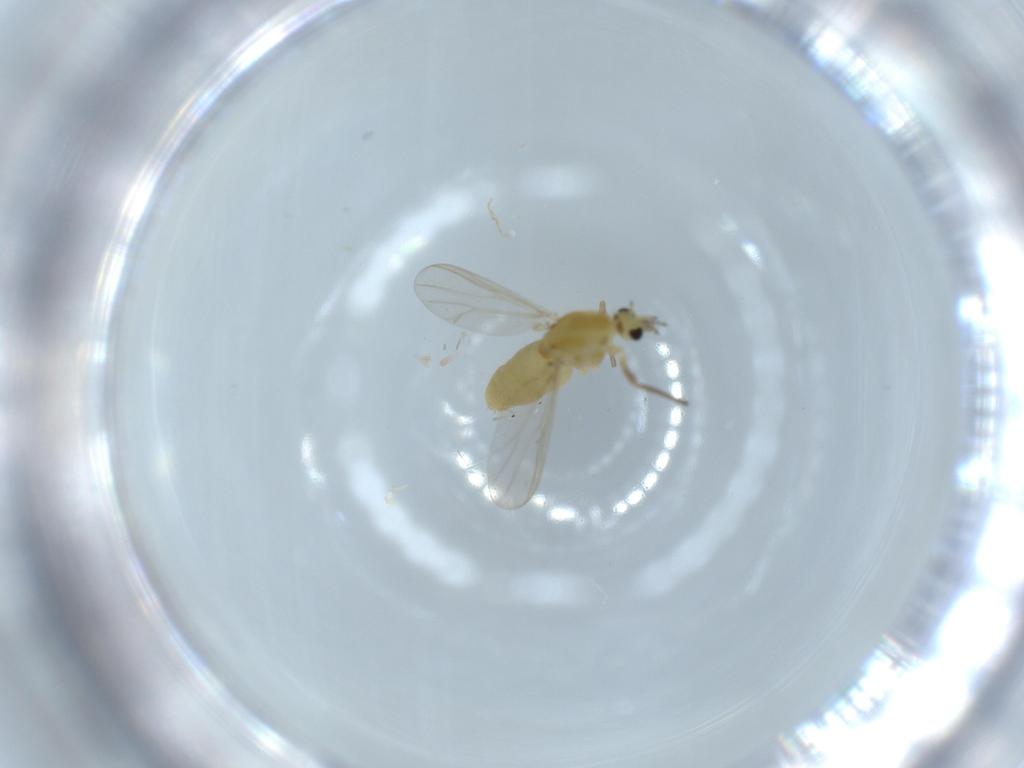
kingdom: Animalia
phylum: Arthropoda
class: Insecta
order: Diptera
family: Chironomidae
